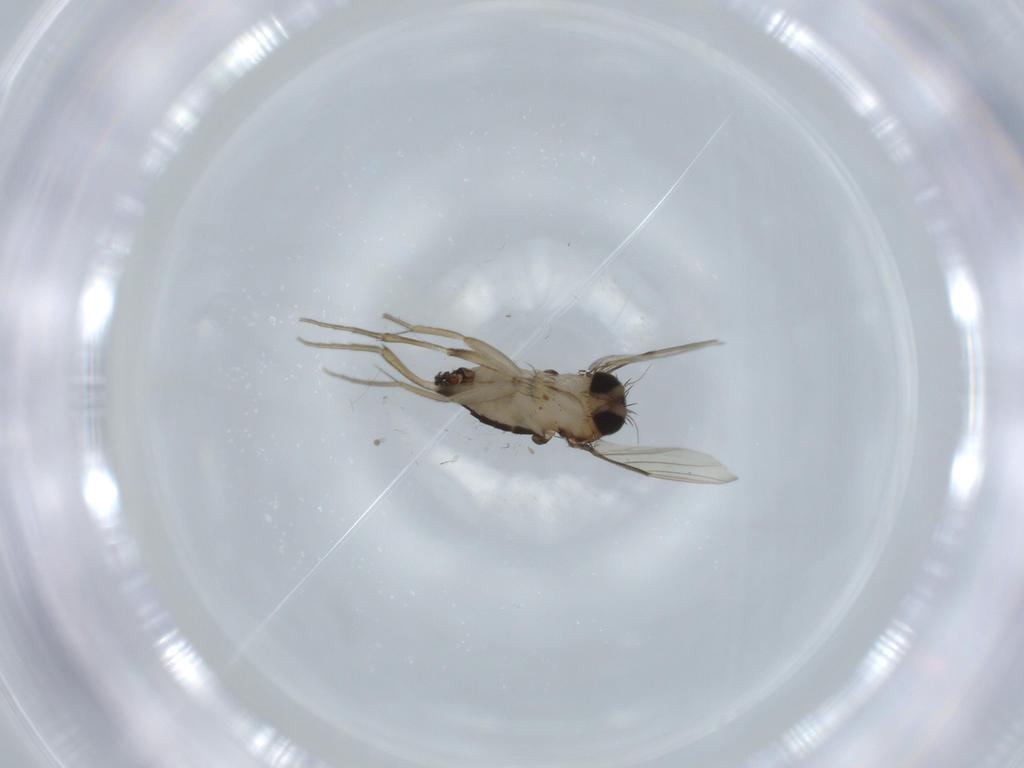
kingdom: Animalia
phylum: Arthropoda
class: Insecta
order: Diptera
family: Phoridae
